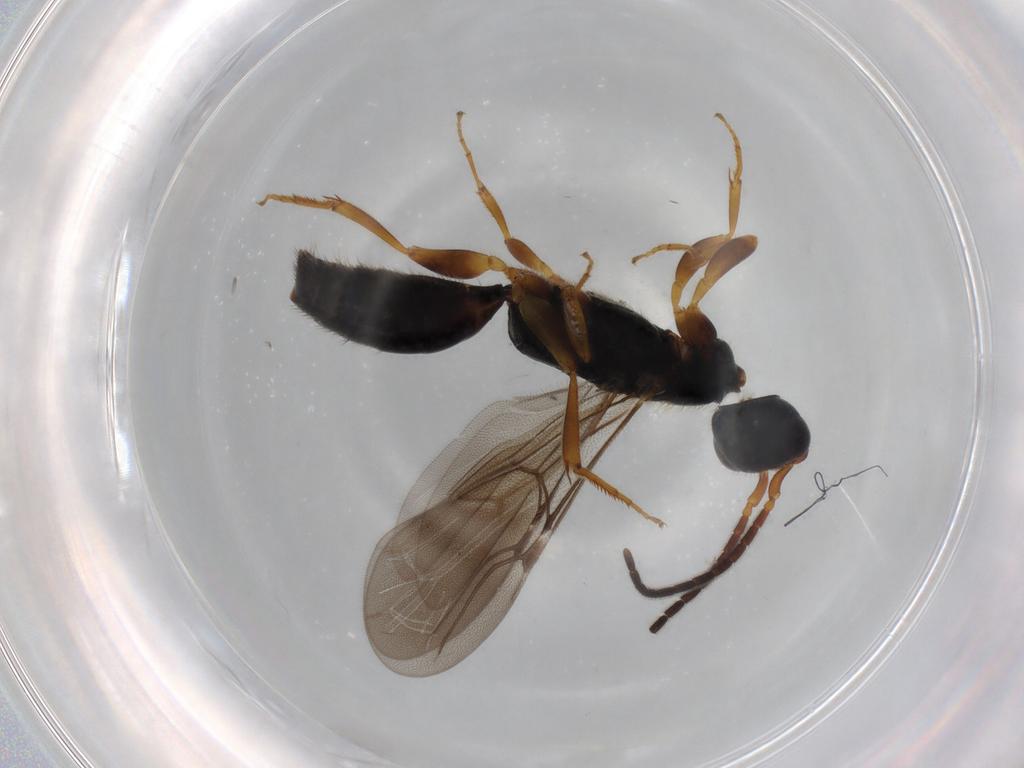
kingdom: Animalia
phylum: Arthropoda
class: Insecta
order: Hymenoptera
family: Bethylidae
